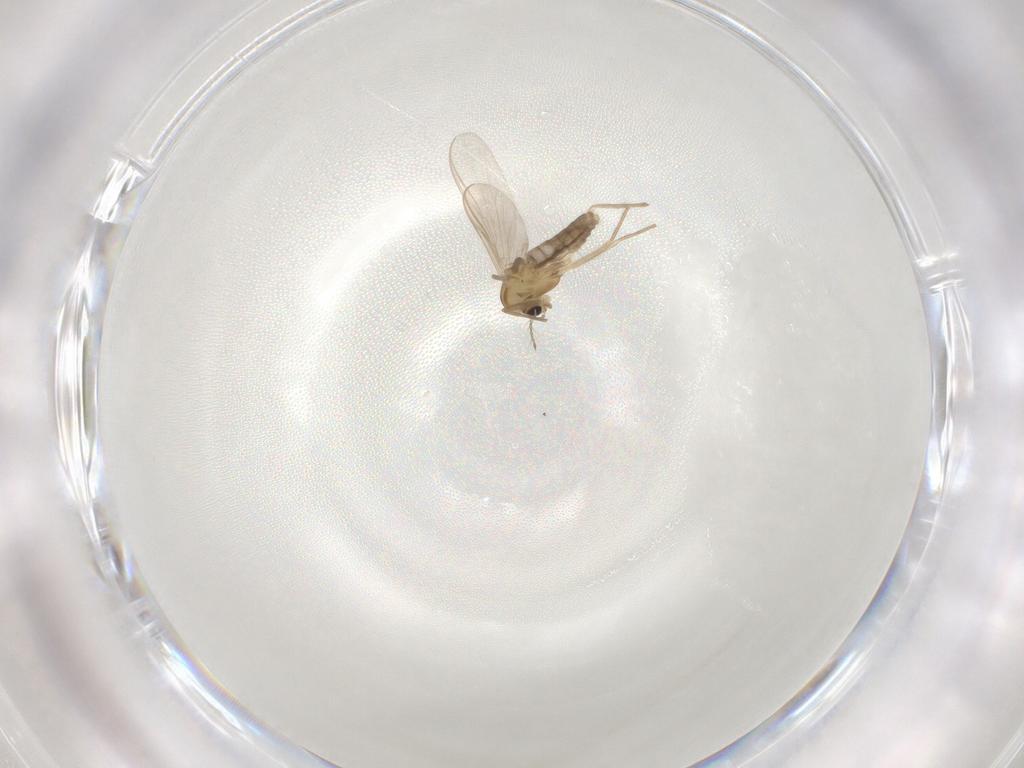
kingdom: Animalia
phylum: Arthropoda
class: Insecta
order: Diptera
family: Chironomidae
